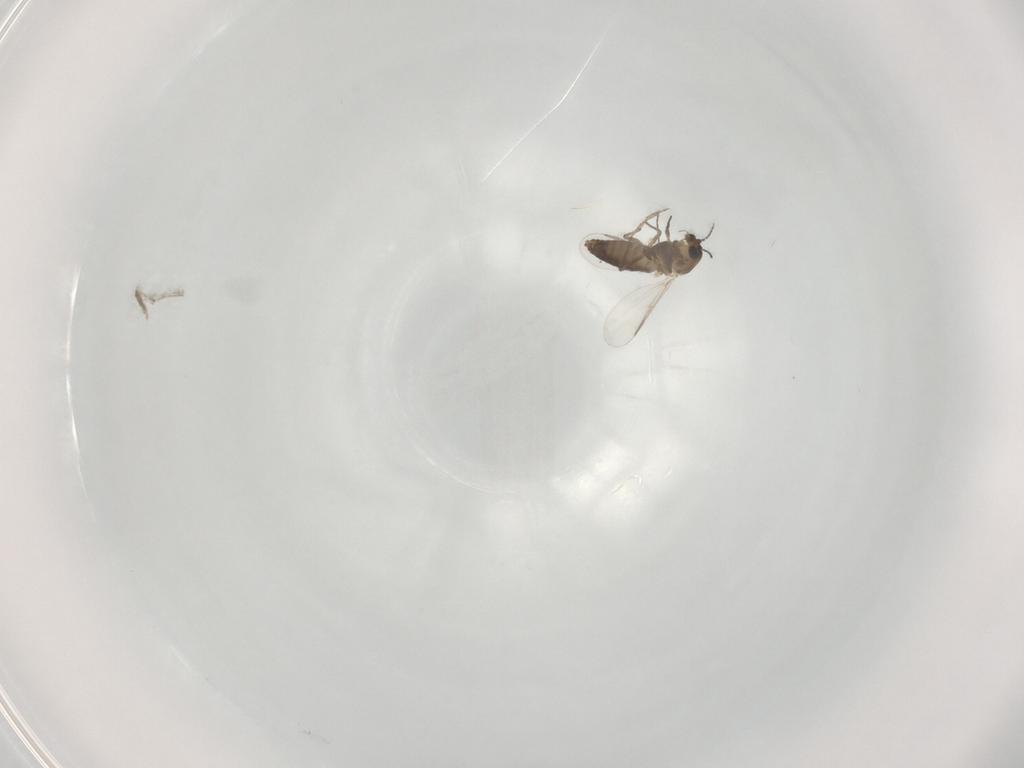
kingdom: Animalia
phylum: Arthropoda
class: Insecta
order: Diptera
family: Chironomidae
